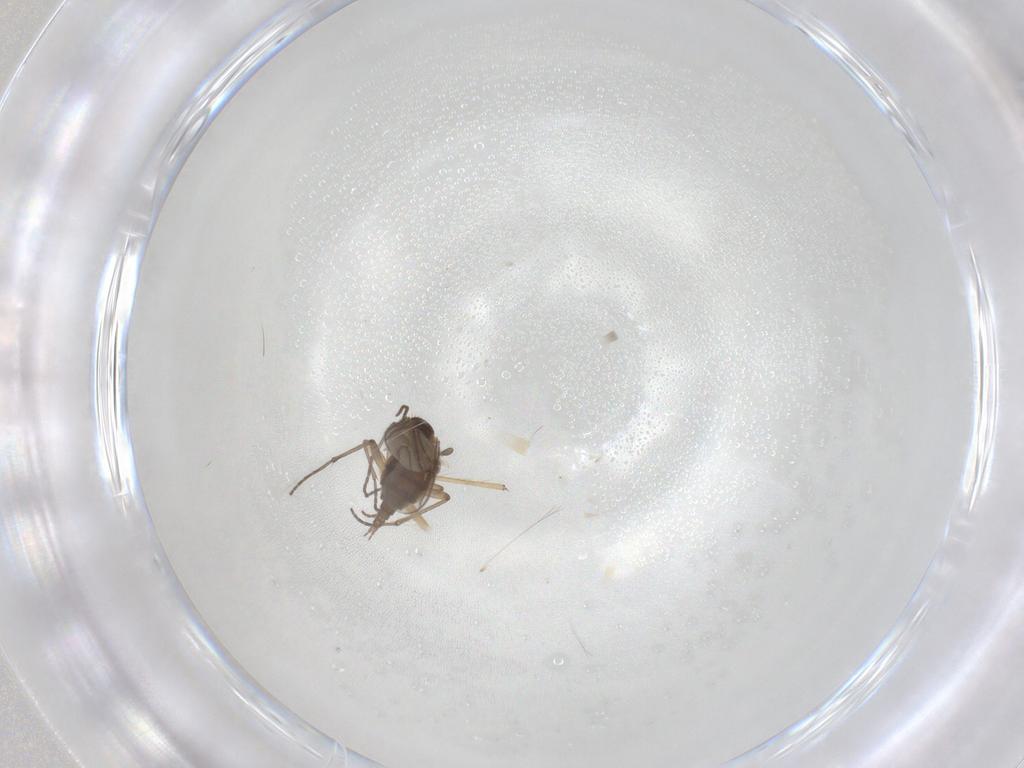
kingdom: Animalia
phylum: Arthropoda
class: Insecta
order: Diptera
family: Sciaridae
